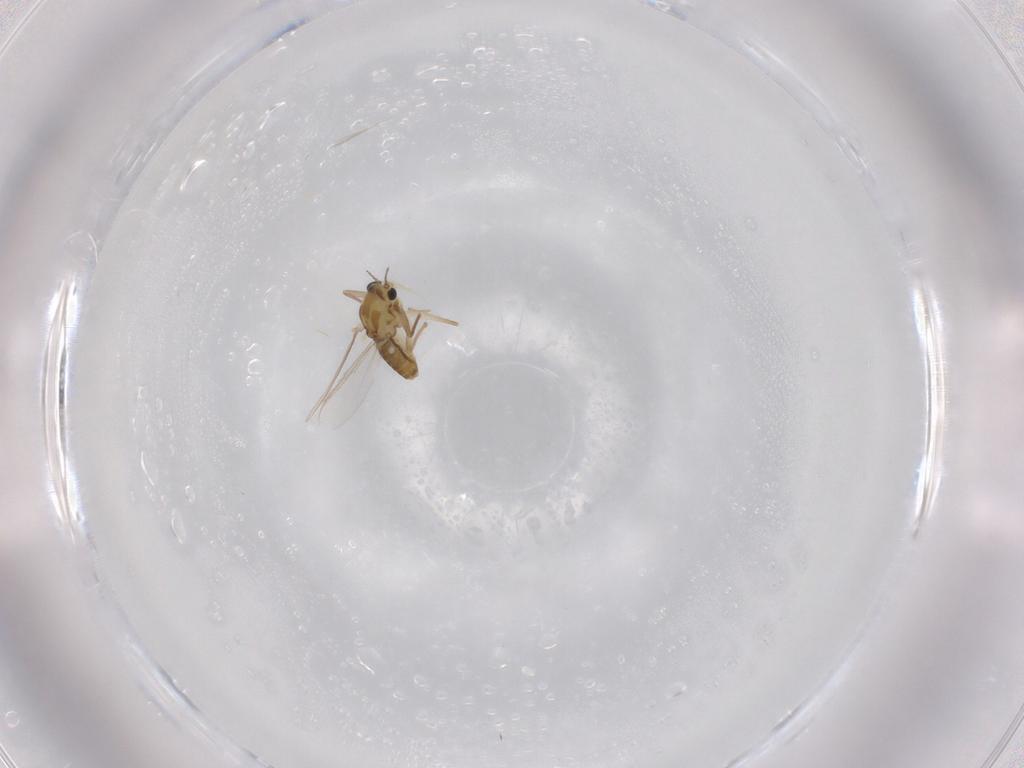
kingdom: Animalia
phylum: Arthropoda
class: Insecta
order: Diptera
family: Chironomidae
